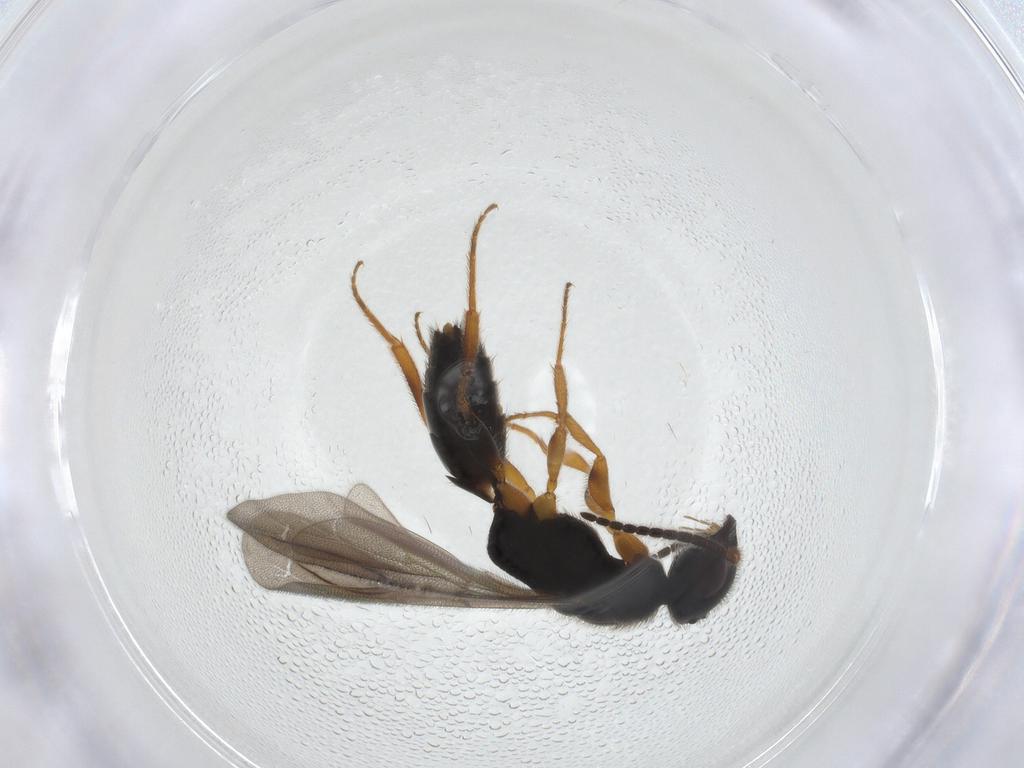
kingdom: Animalia
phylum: Arthropoda
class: Insecta
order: Hymenoptera
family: Bethylidae
